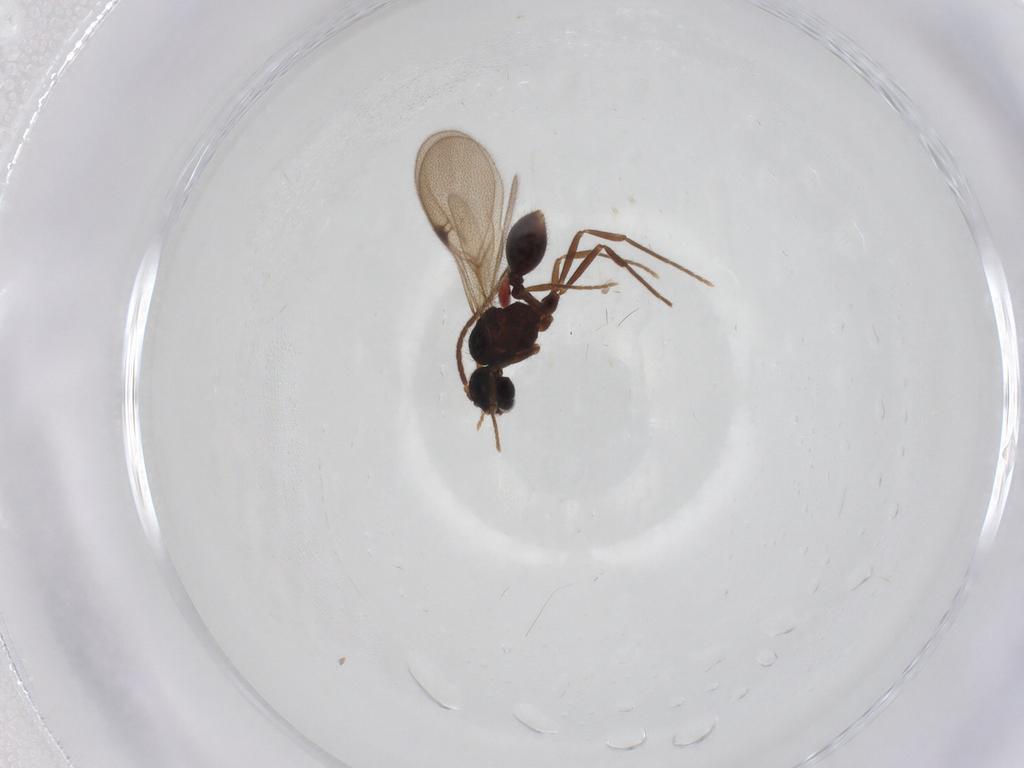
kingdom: Animalia
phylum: Arthropoda
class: Insecta
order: Hymenoptera
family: Formicidae
